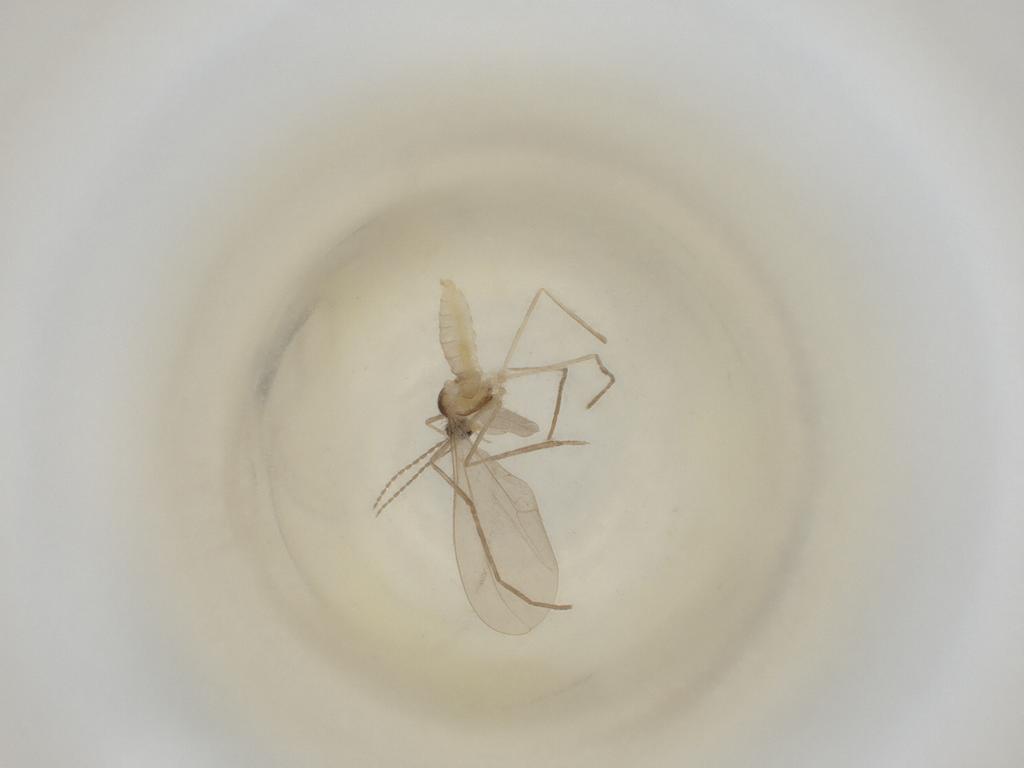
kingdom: Animalia
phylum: Arthropoda
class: Insecta
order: Diptera
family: Cecidomyiidae
